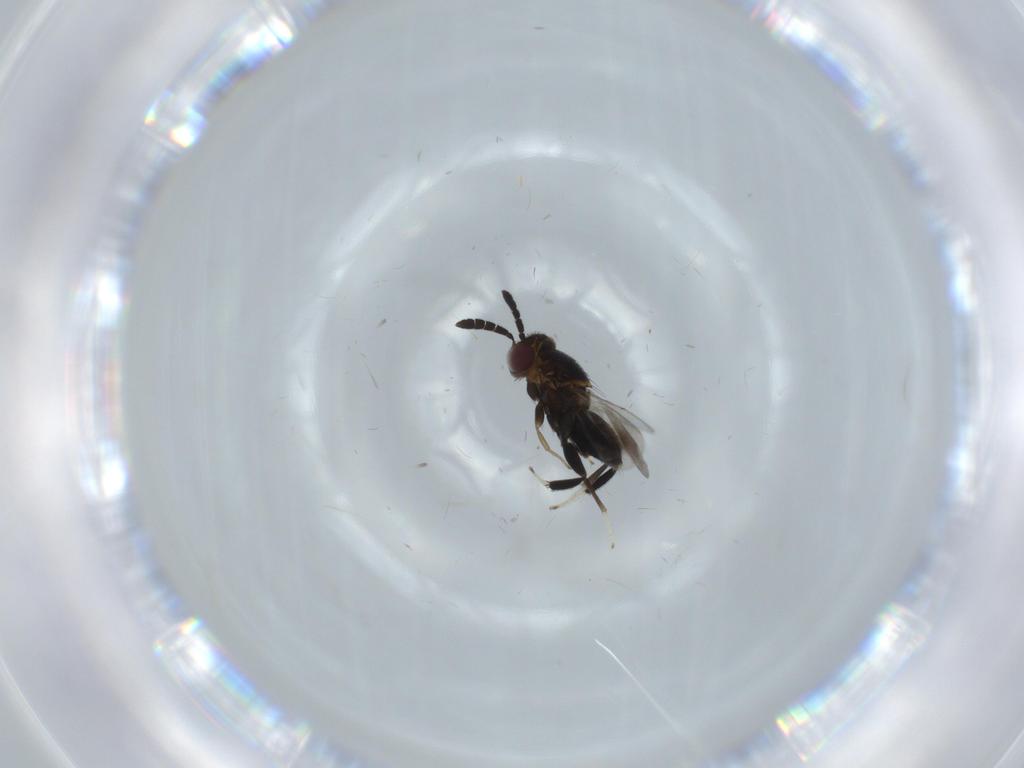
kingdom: Animalia
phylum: Arthropoda
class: Insecta
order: Hymenoptera
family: Aphelinidae
